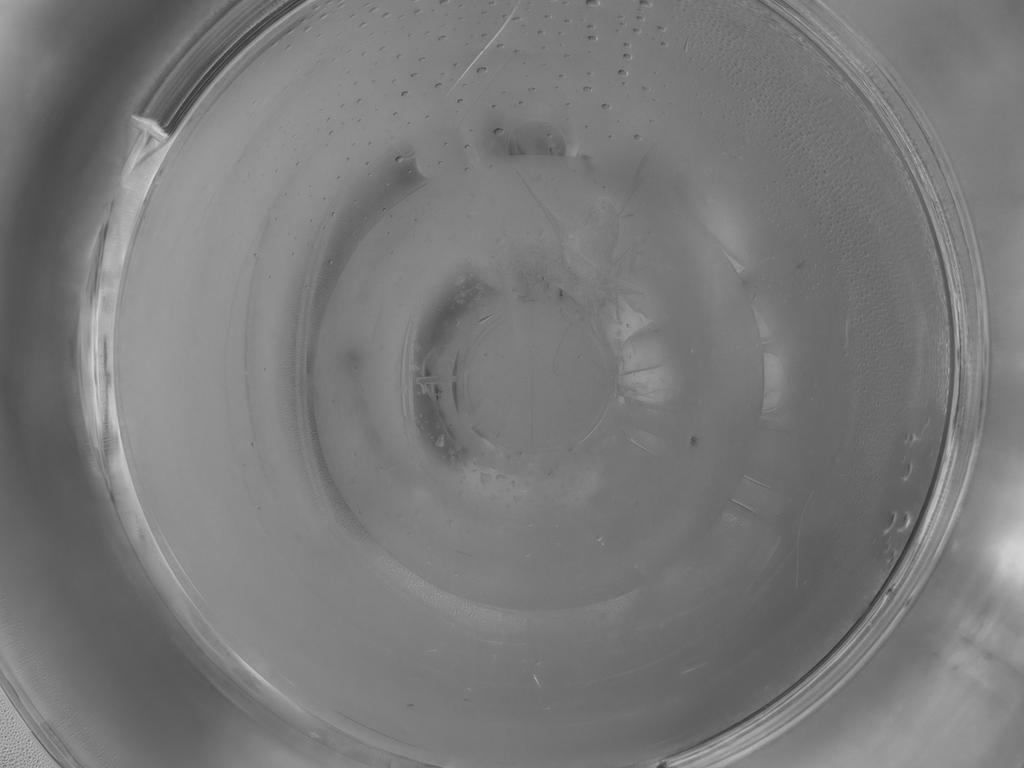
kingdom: Animalia
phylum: Arthropoda
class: Insecta
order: Diptera
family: Cecidomyiidae
